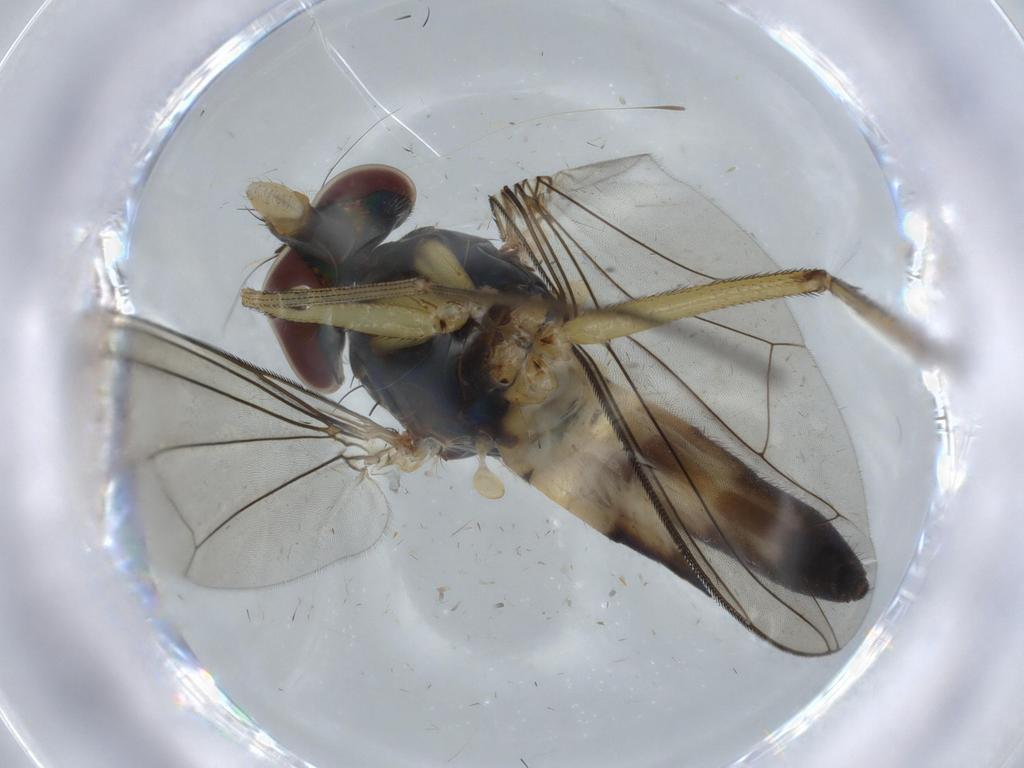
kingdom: Animalia
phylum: Arthropoda
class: Insecta
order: Diptera
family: Dolichopodidae
